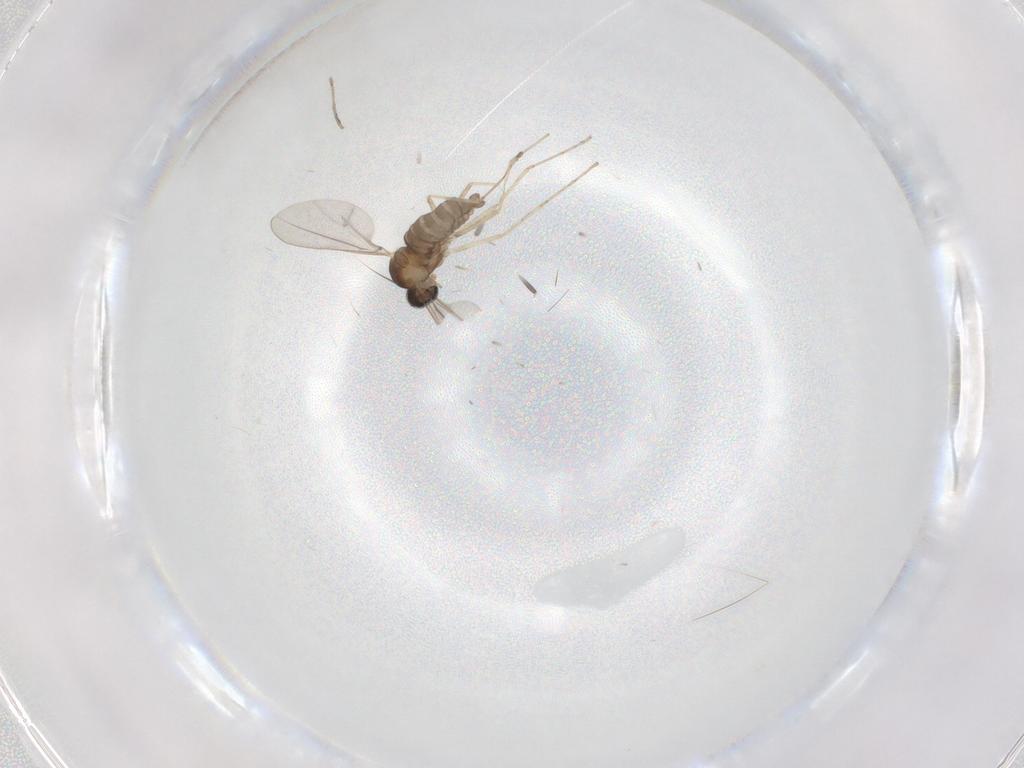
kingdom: Animalia
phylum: Arthropoda
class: Insecta
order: Diptera
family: Cecidomyiidae
